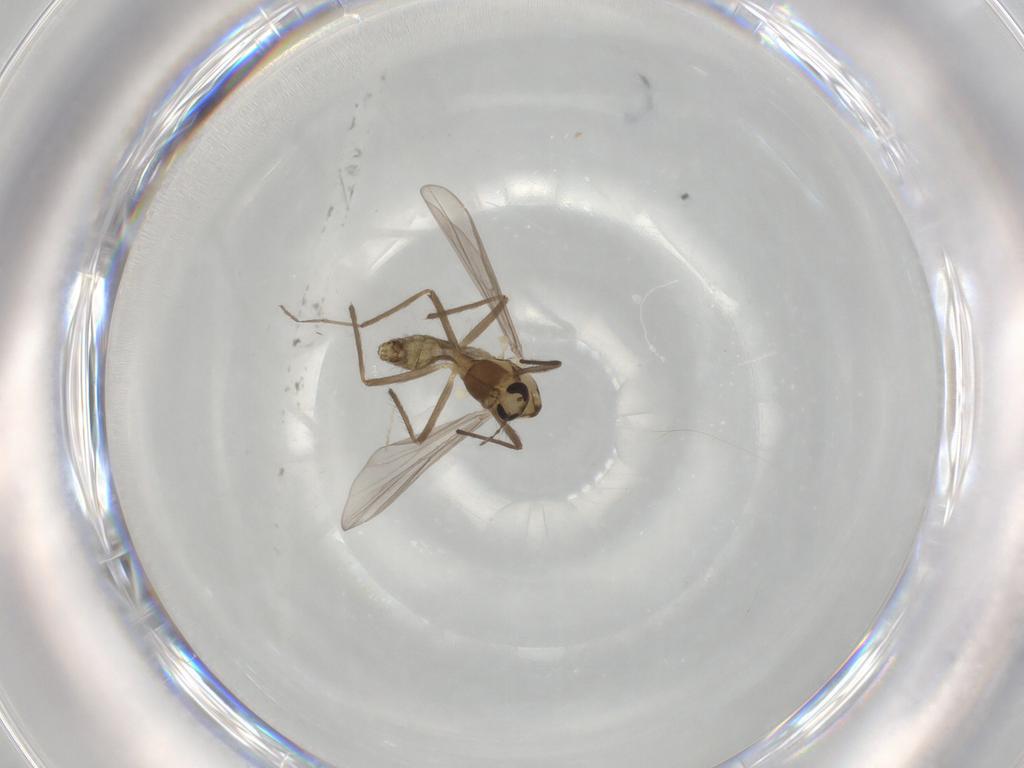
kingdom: Animalia
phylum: Arthropoda
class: Insecta
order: Diptera
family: Chironomidae
